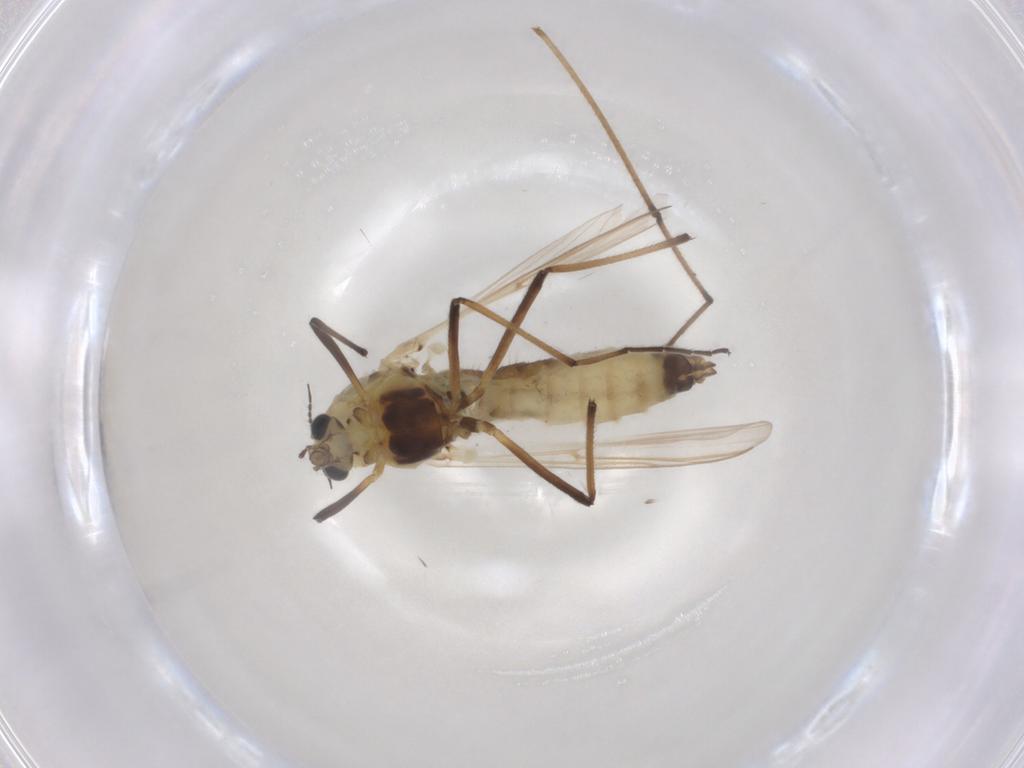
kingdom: Animalia
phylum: Arthropoda
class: Insecta
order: Diptera
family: Chironomidae
